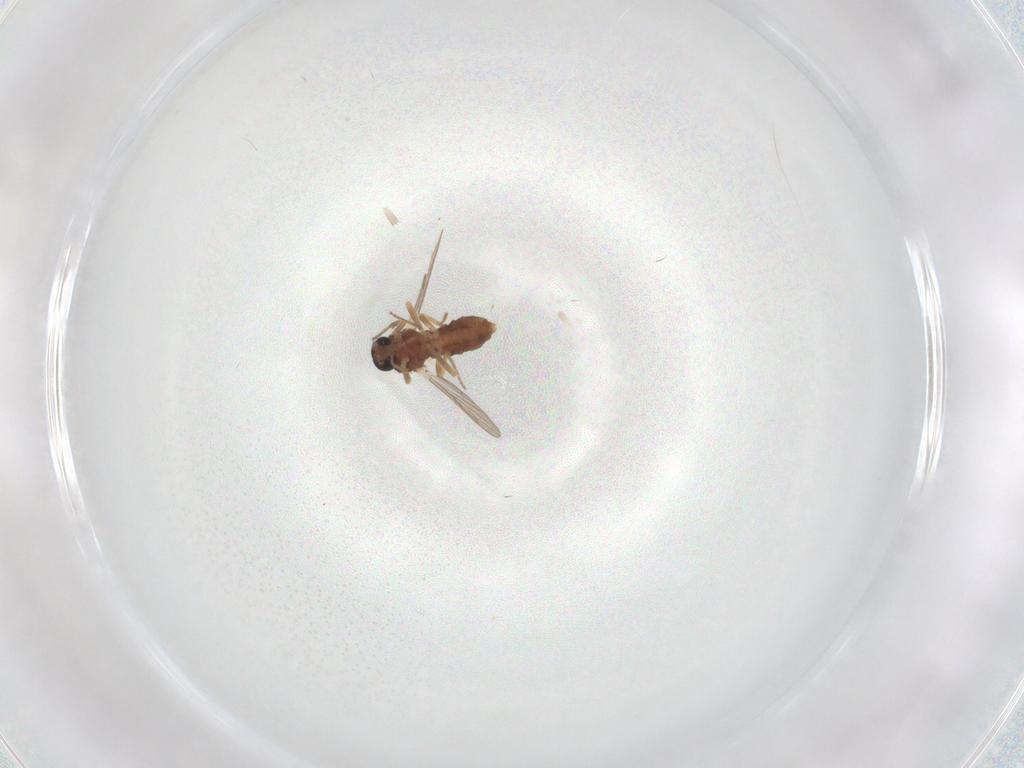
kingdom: Animalia
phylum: Arthropoda
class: Insecta
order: Diptera
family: Ceratopogonidae
